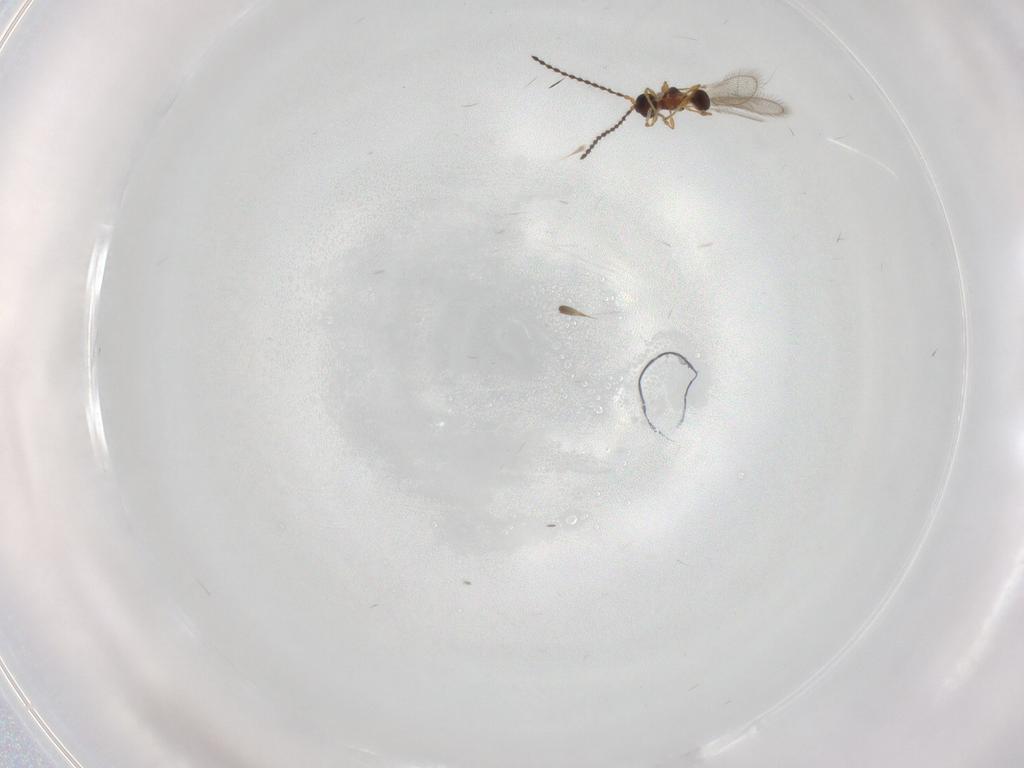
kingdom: Animalia
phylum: Arthropoda
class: Insecta
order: Hymenoptera
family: Diapriidae
